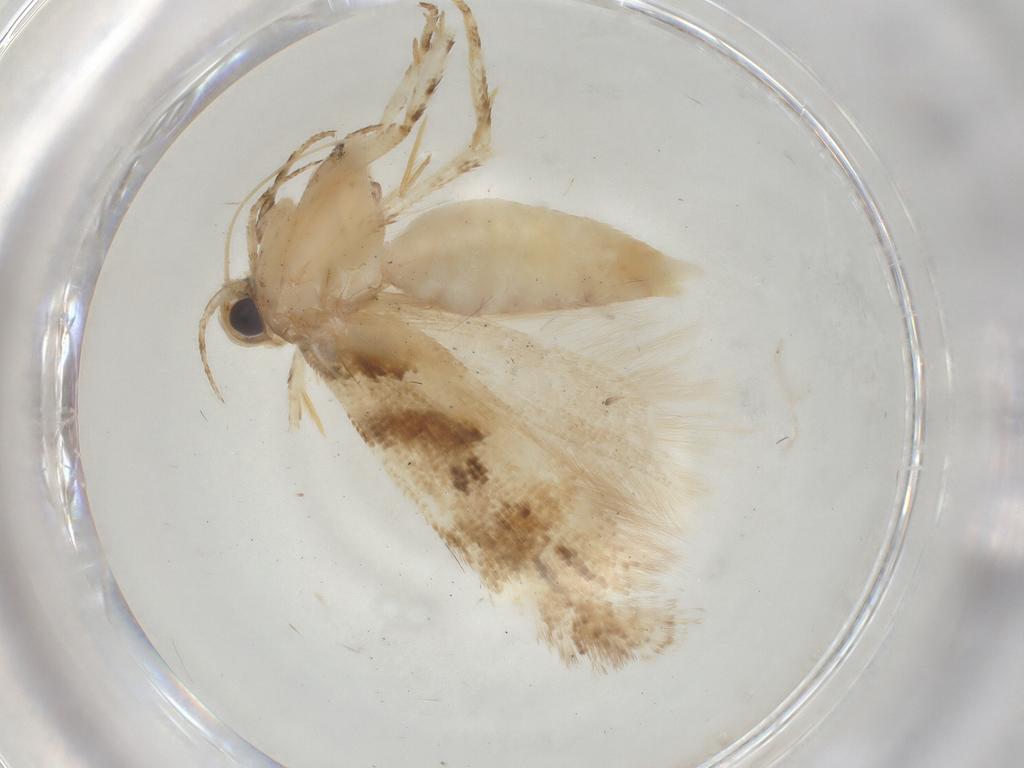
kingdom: Animalia
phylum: Arthropoda
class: Insecta
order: Lepidoptera
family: Gelechiidae
